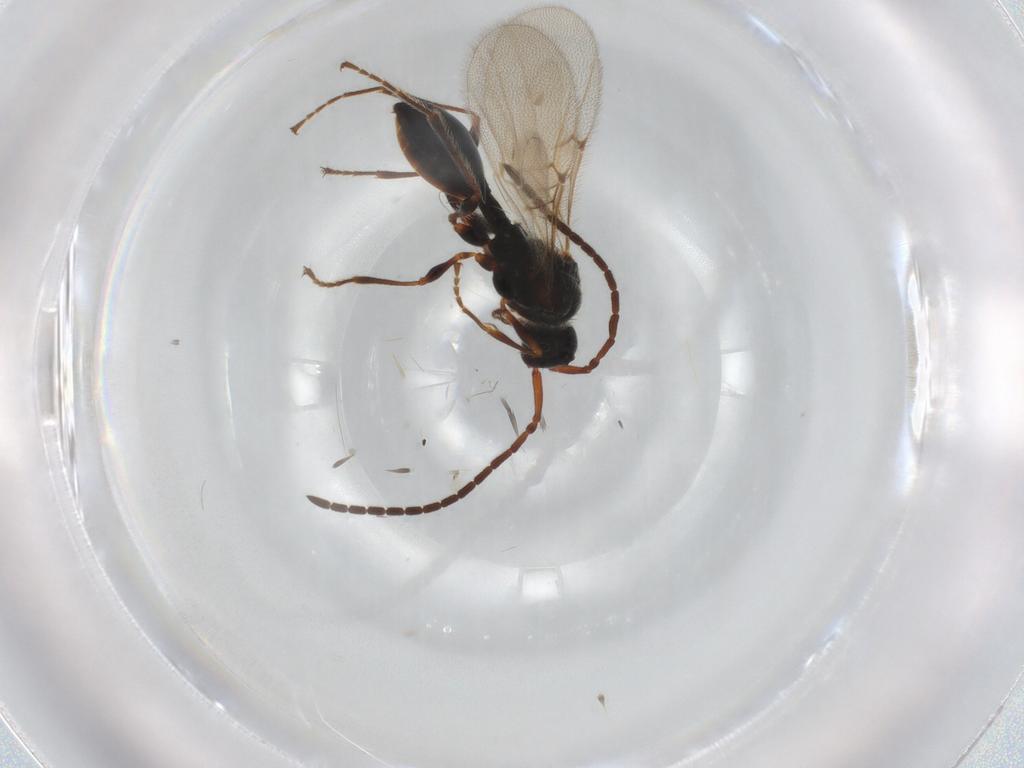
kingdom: Animalia
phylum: Arthropoda
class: Insecta
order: Hymenoptera
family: Diapriidae
